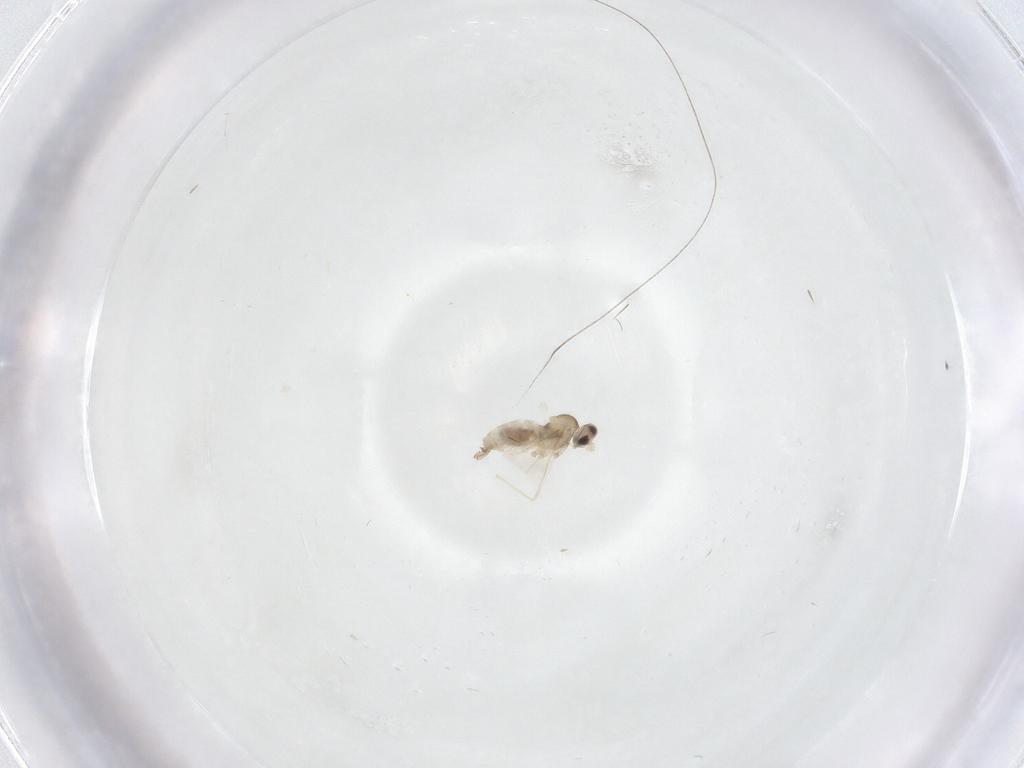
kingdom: Animalia
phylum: Arthropoda
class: Insecta
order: Diptera
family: Cecidomyiidae
